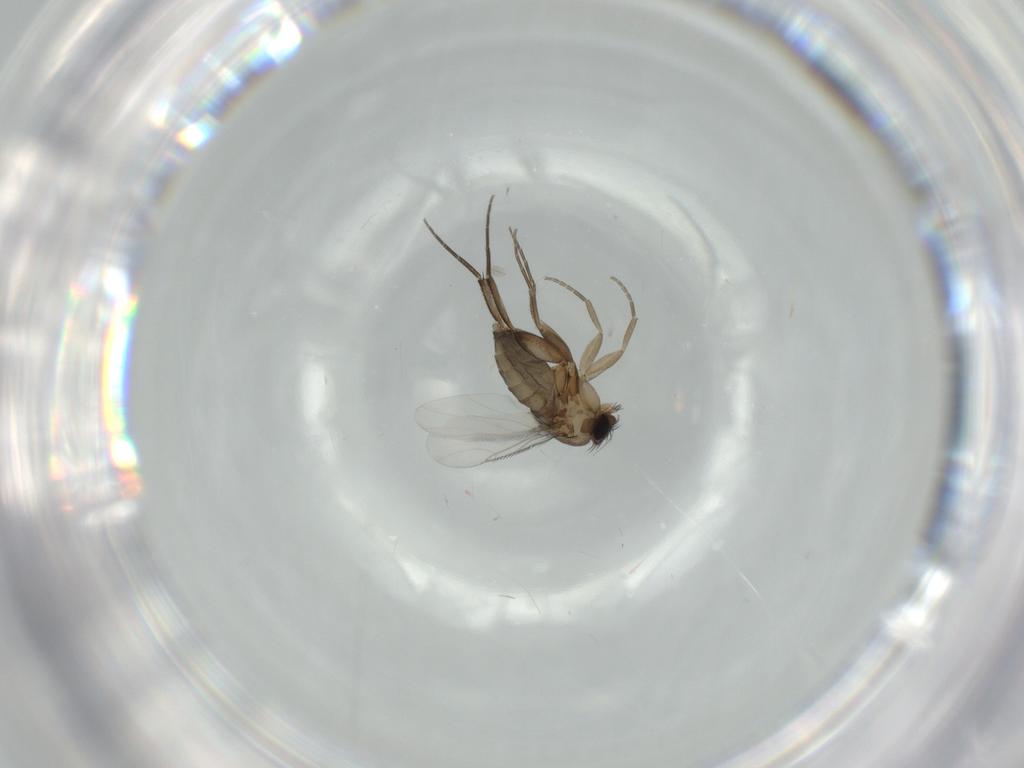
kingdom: Animalia
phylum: Arthropoda
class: Insecta
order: Diptera
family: Phoridae
